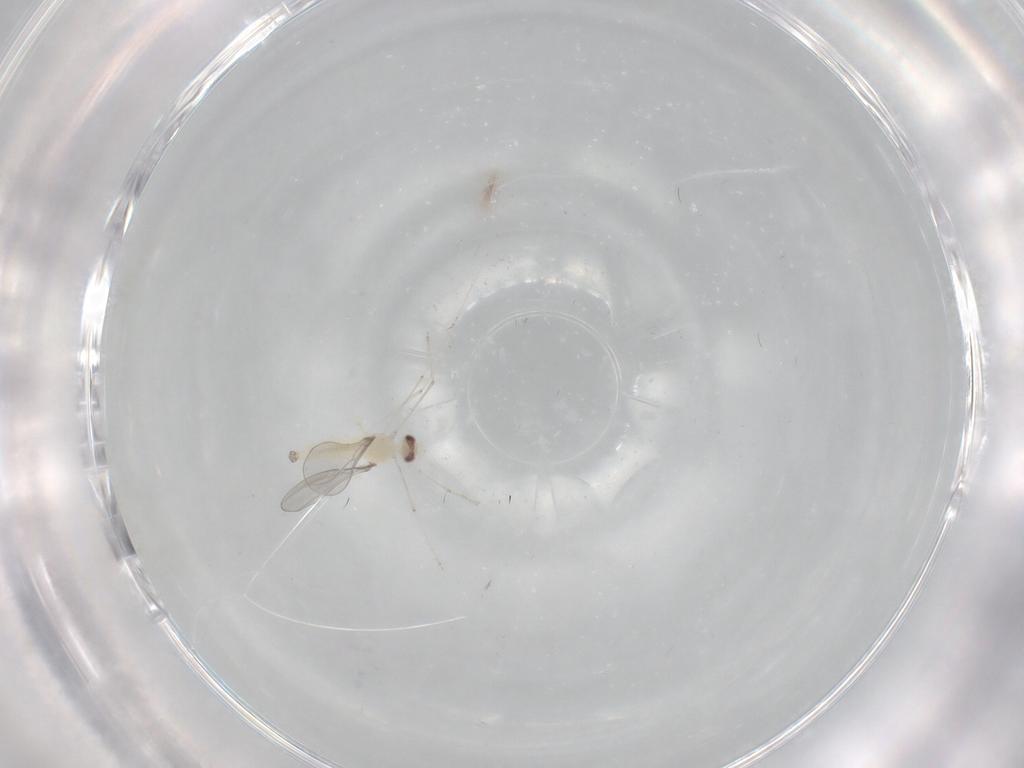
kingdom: Animalia
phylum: Arthropoda
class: Insecta
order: Diptera
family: Cecidomyiidae
